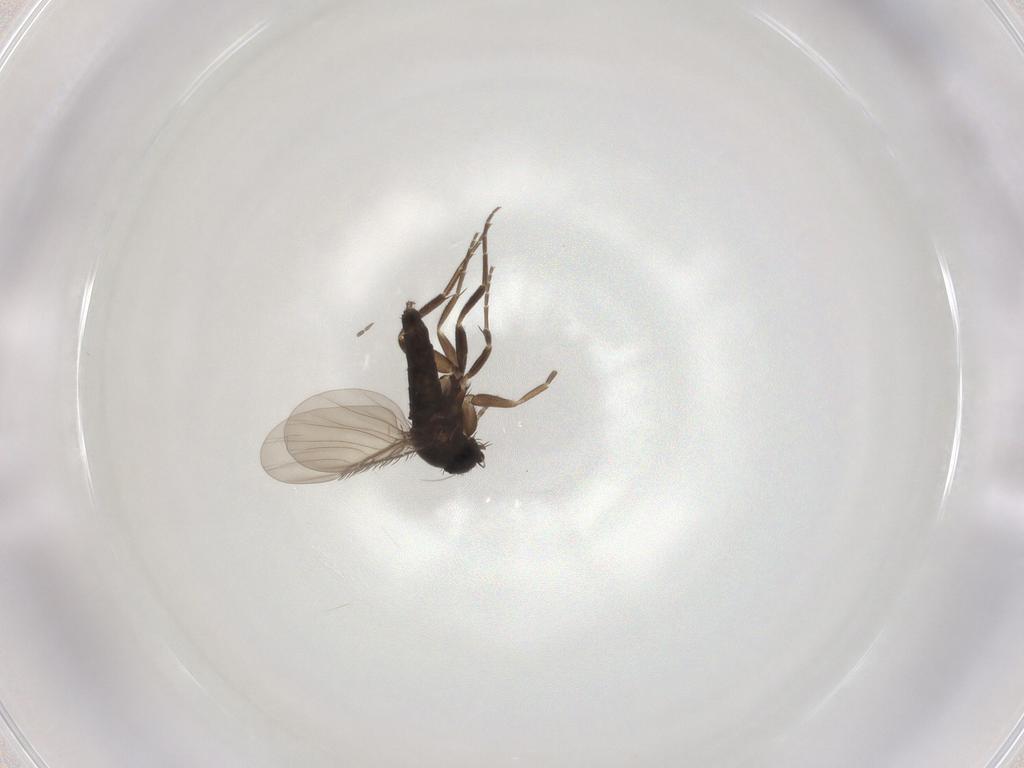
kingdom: Animalia
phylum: Arthropoda
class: Insecta
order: Diptera
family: Phoridae
